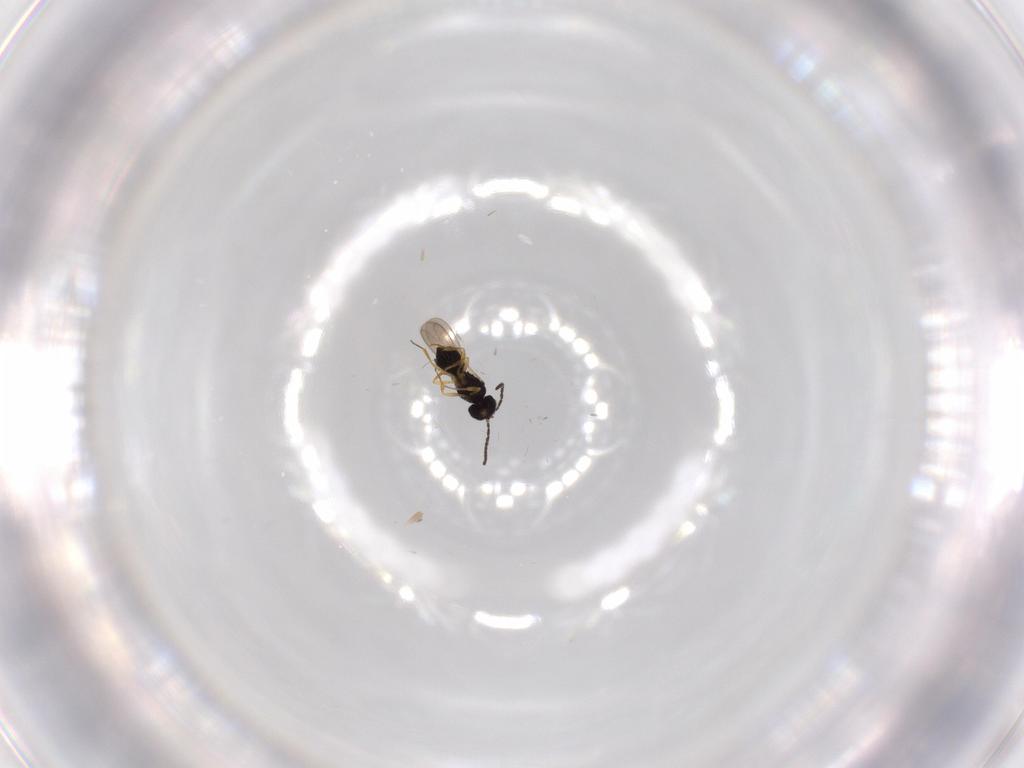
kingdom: Animalia
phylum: Arthropoda
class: Insecta
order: Hymenoptera
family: Scelionidae
